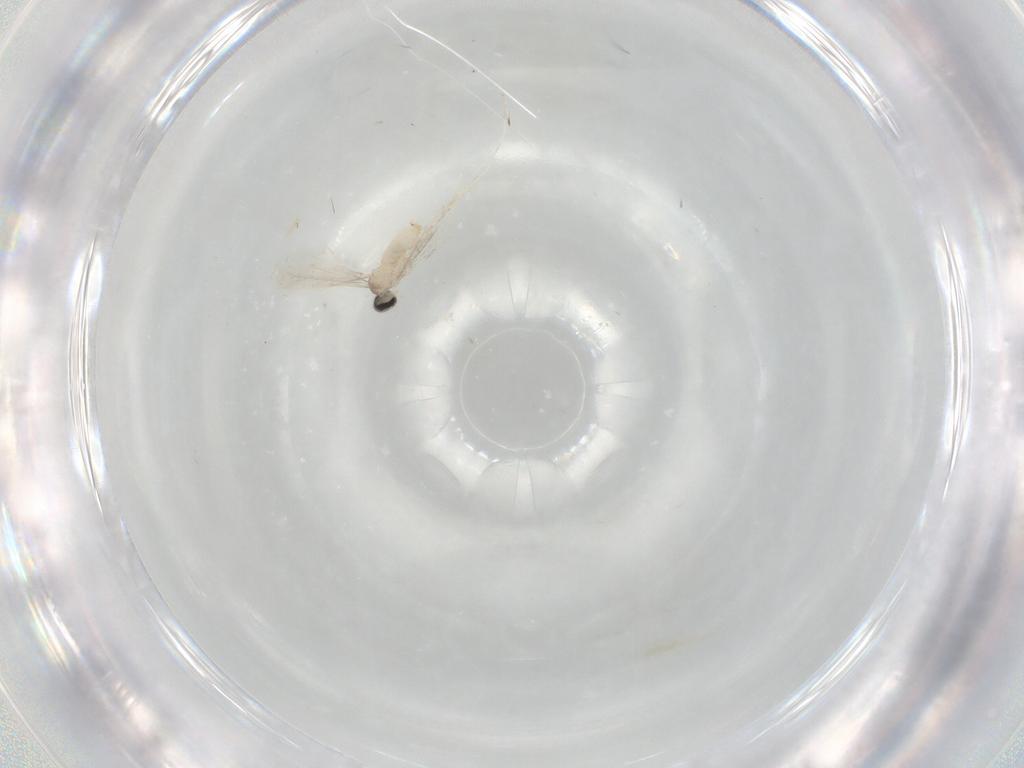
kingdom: Animalia
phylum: Arthropoda
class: Insecta
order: Diptera
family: Cecidomyiidae
